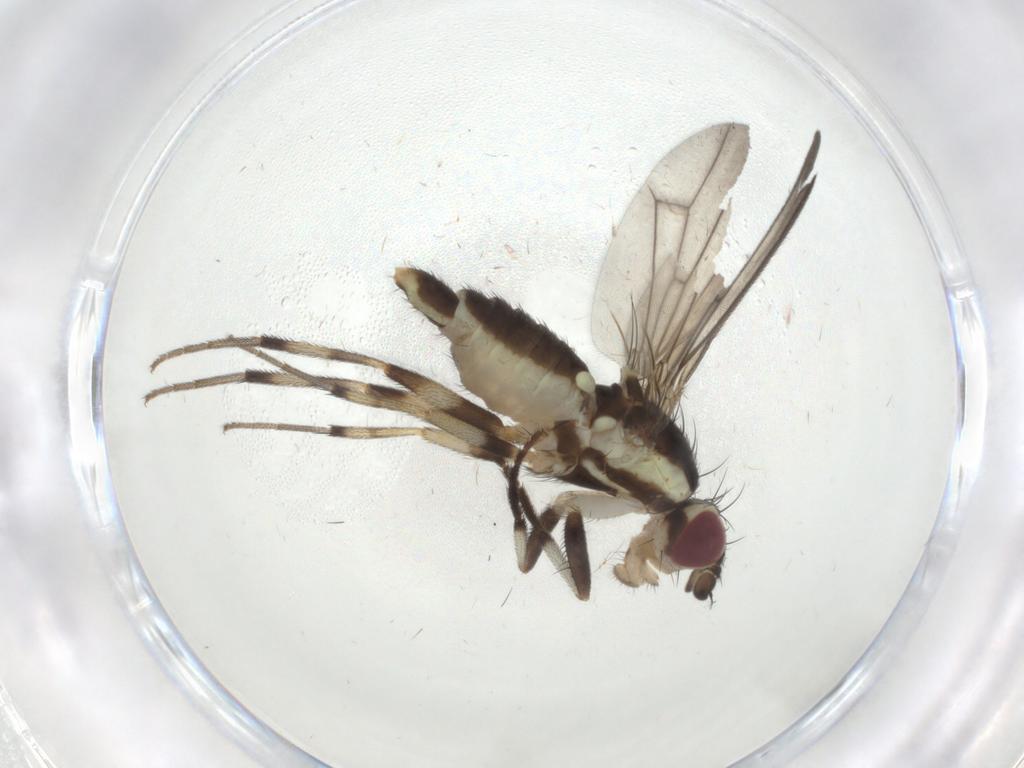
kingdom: Animalia
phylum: Arthropoda
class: Insecta
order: Diptera
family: Pseudopomyzidae
